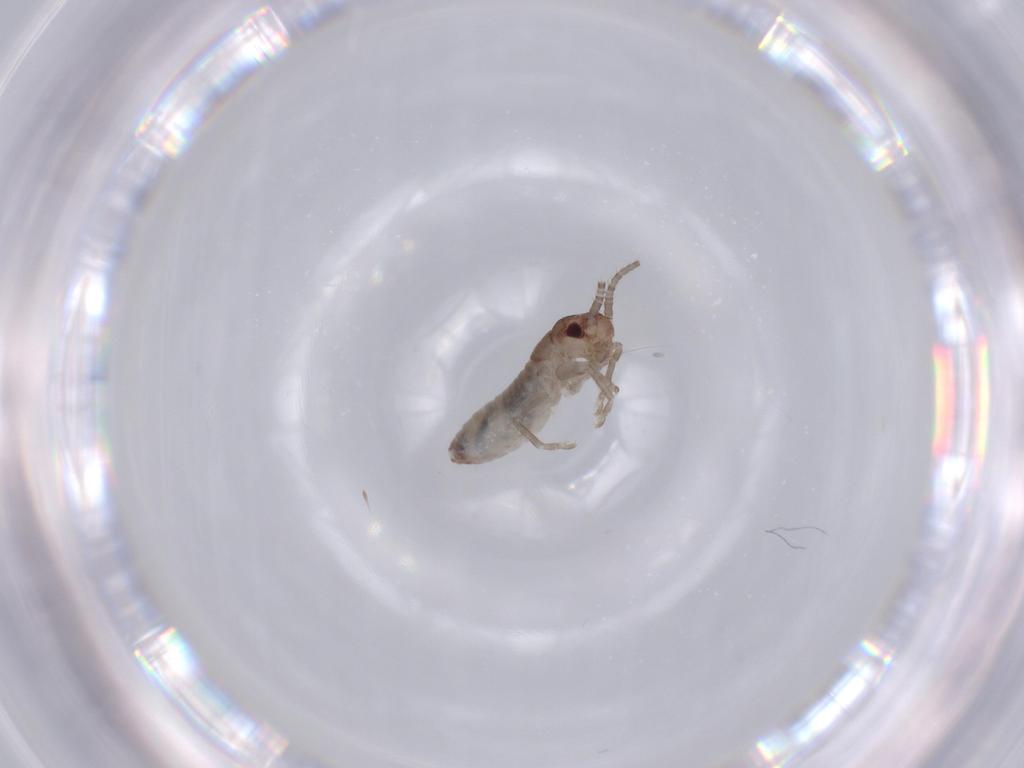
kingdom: Animalia
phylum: Arthropoda
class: Insecta
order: Orthoptera
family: Gryllidae
